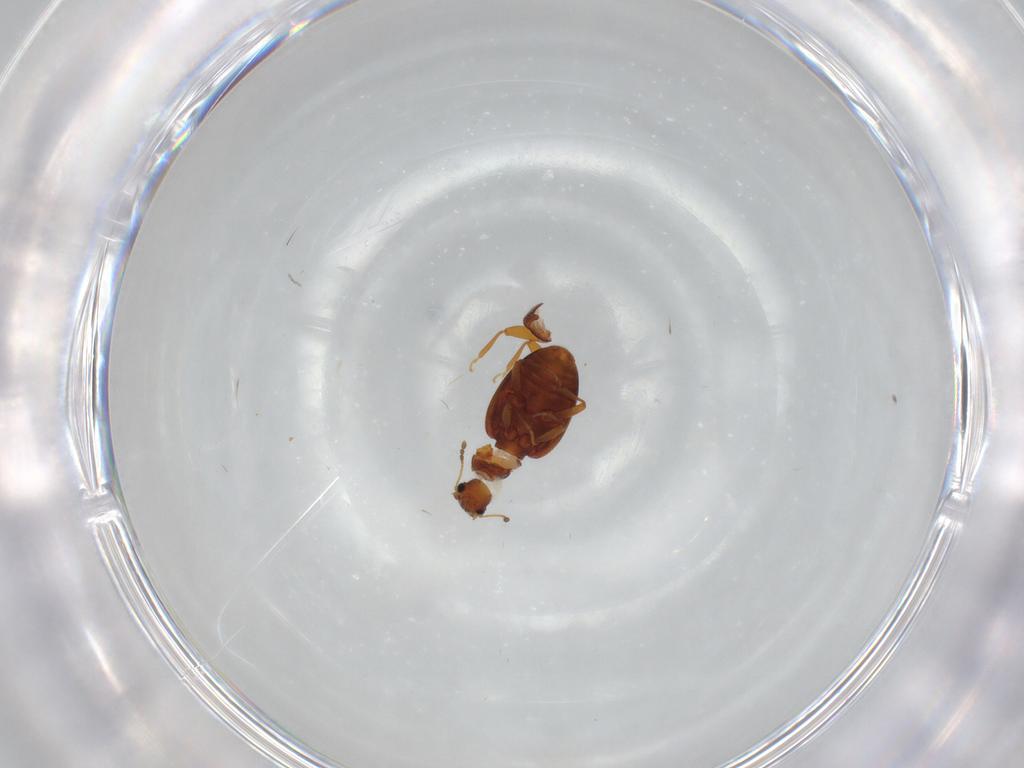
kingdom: Animalia
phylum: Arthropoda
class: Insecta
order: Coleoptera
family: Latridiidae
